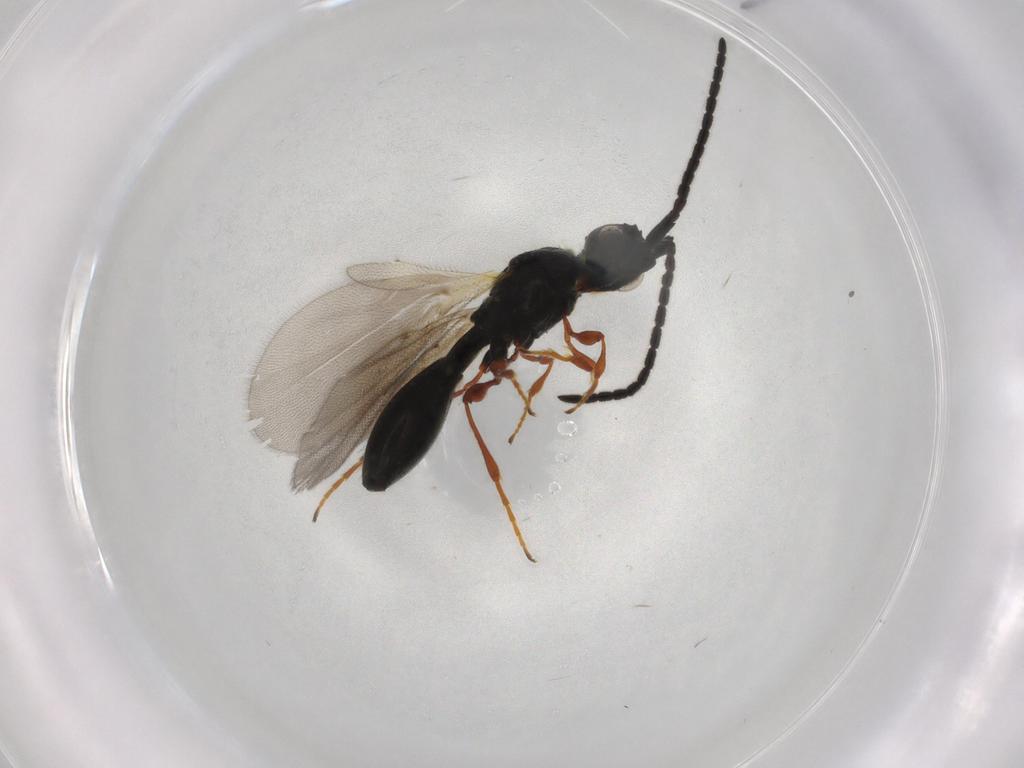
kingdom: Animalia
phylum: Arthropoda
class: Insecta
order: Hymenoptera
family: Diapriidae
